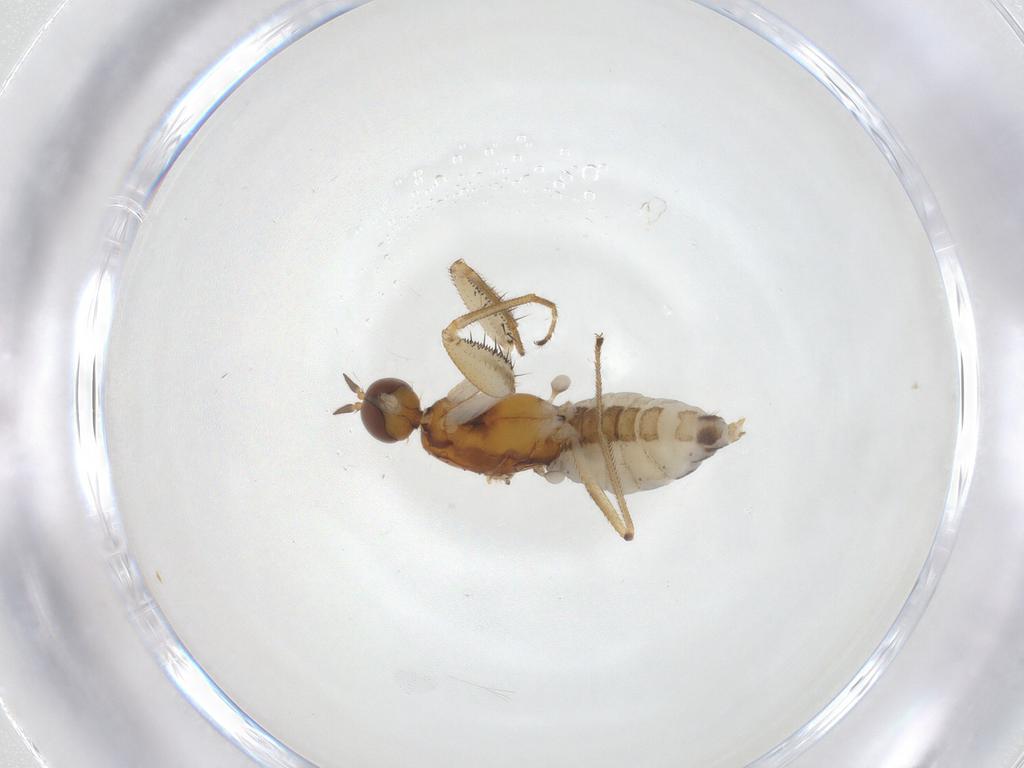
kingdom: Animalia
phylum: Arthropoda
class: Insecta
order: Diptera
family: Empididae
